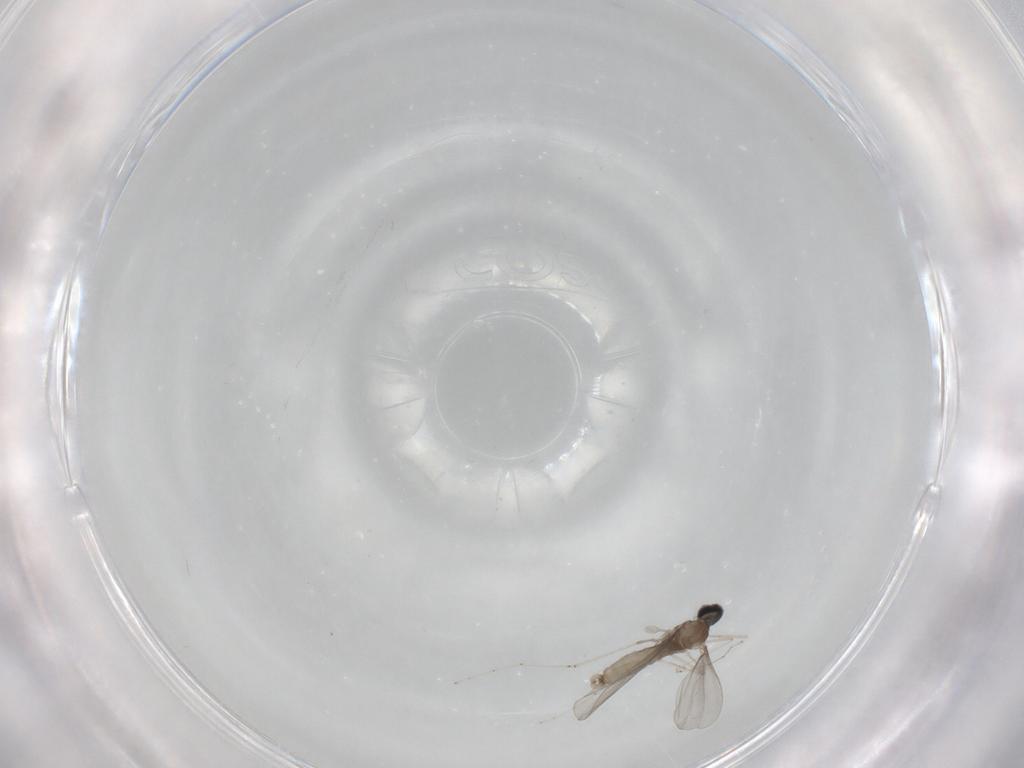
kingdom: Animalia
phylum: Arthropoda
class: Insecta
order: Diptera
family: Cecidomyiidae
